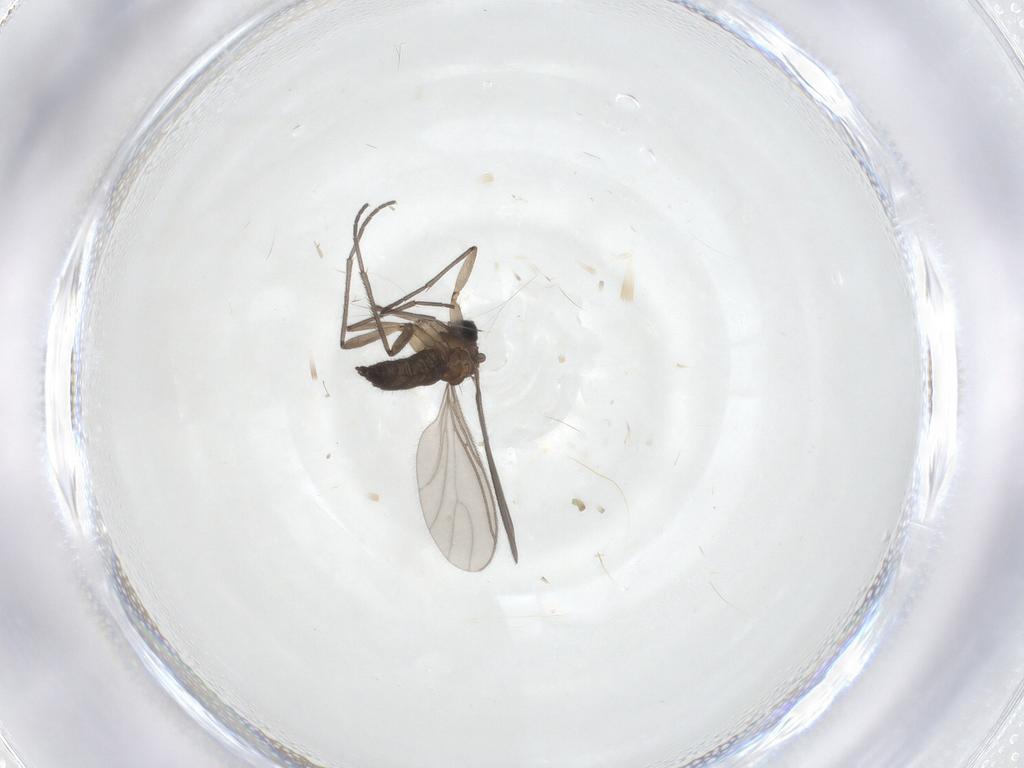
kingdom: Animalia
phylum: Arthropoda
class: Insecta
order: Diptera
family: Sciaridae
